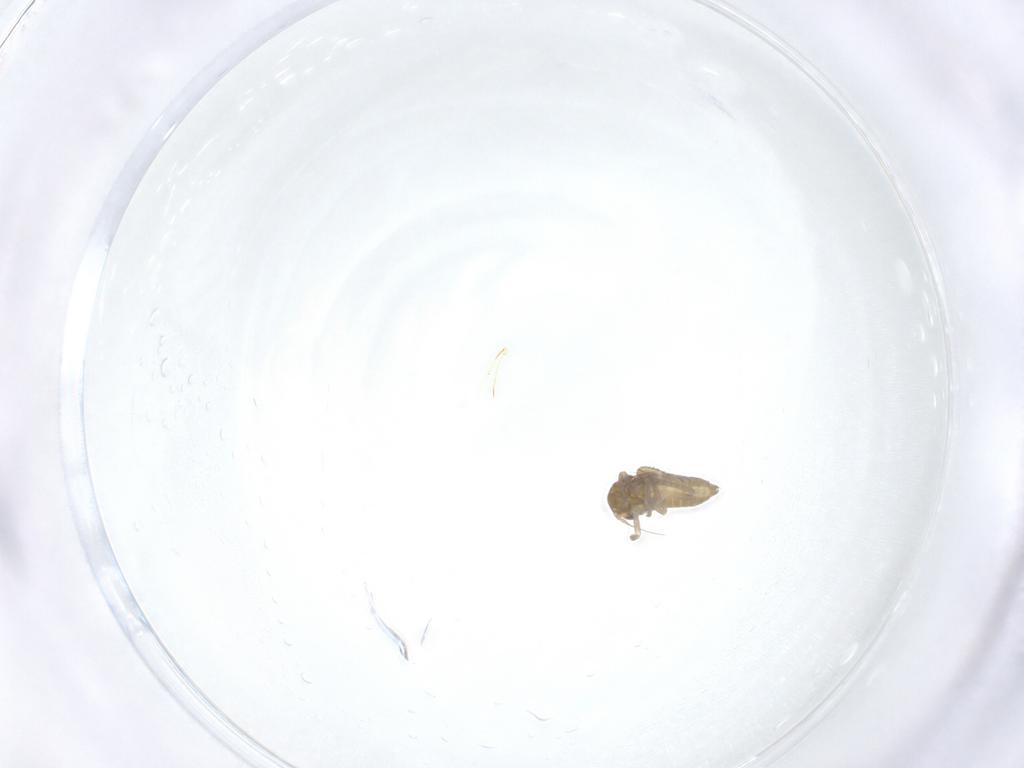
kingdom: Animalia
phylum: Arthropoda
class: Insecta
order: Hemiptera
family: Cicadellidae
